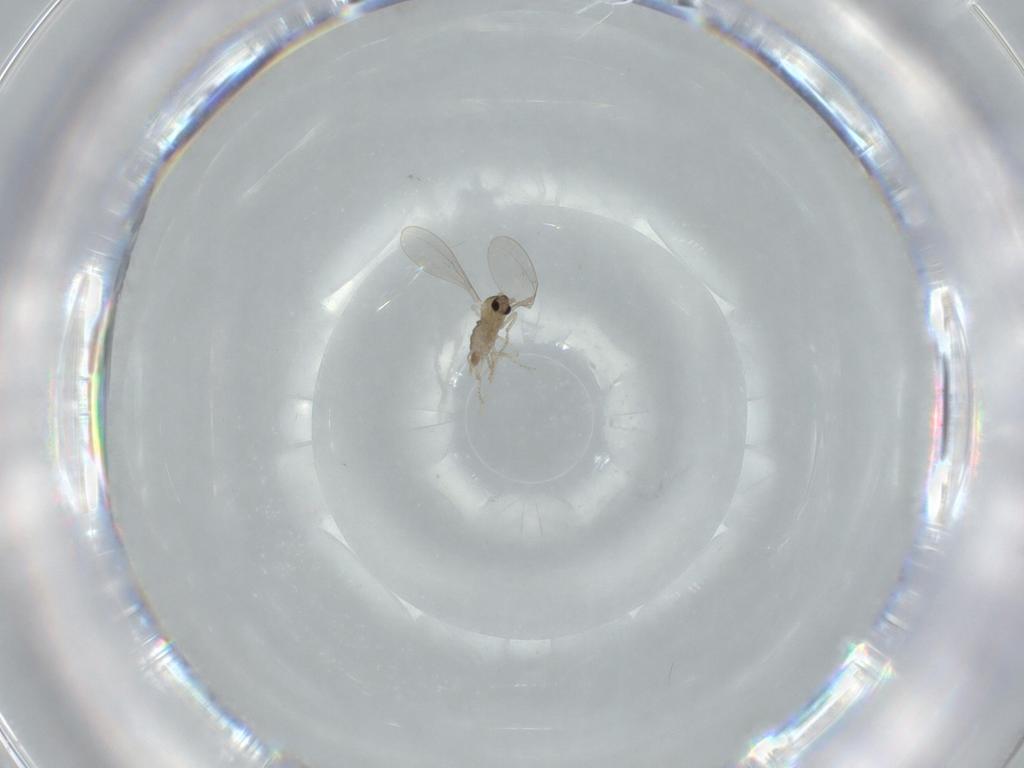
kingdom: Animalia
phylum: Arthropoda
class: Insecta
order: Diptera
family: Cecidomyiidae
